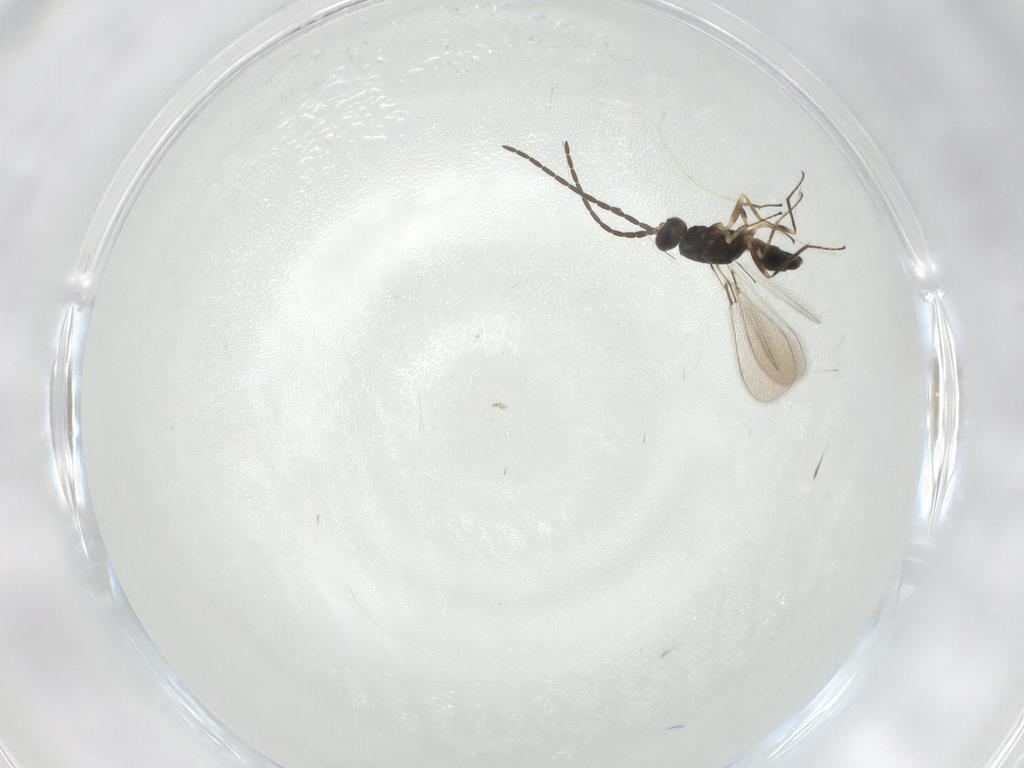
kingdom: Animalia
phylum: Arthropoda
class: Insecta
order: Hymenoptera
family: Mymaridae
